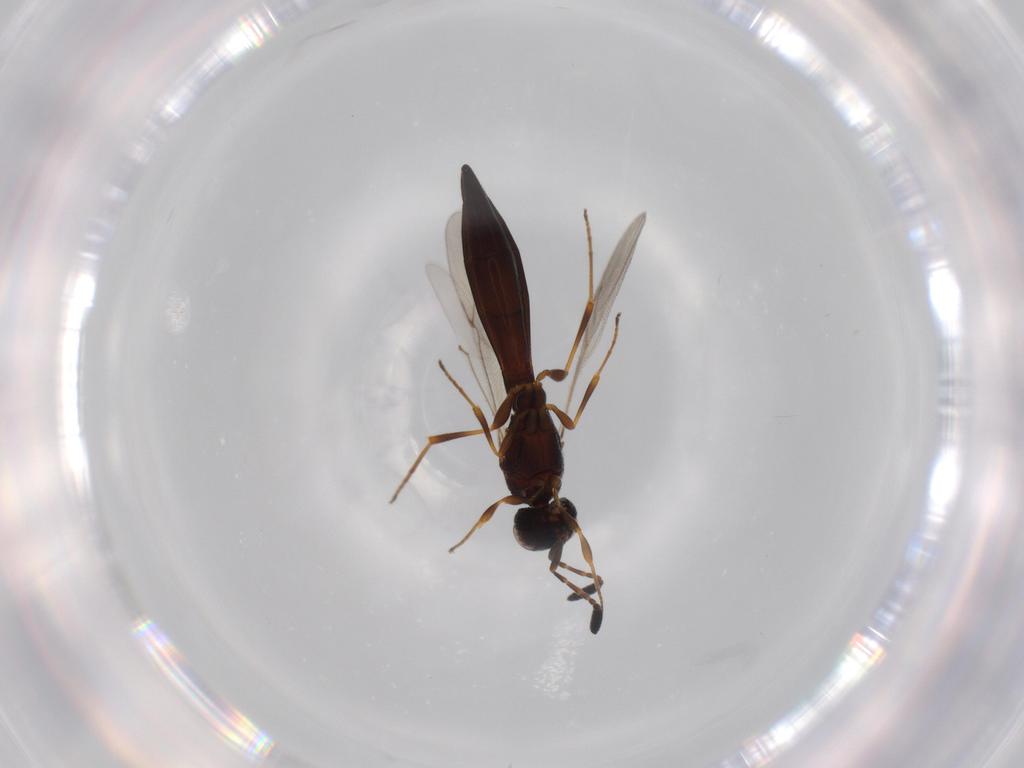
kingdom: Animalia
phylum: Arthropoda
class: Insecta
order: Hymenoptera
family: Scelionidae
